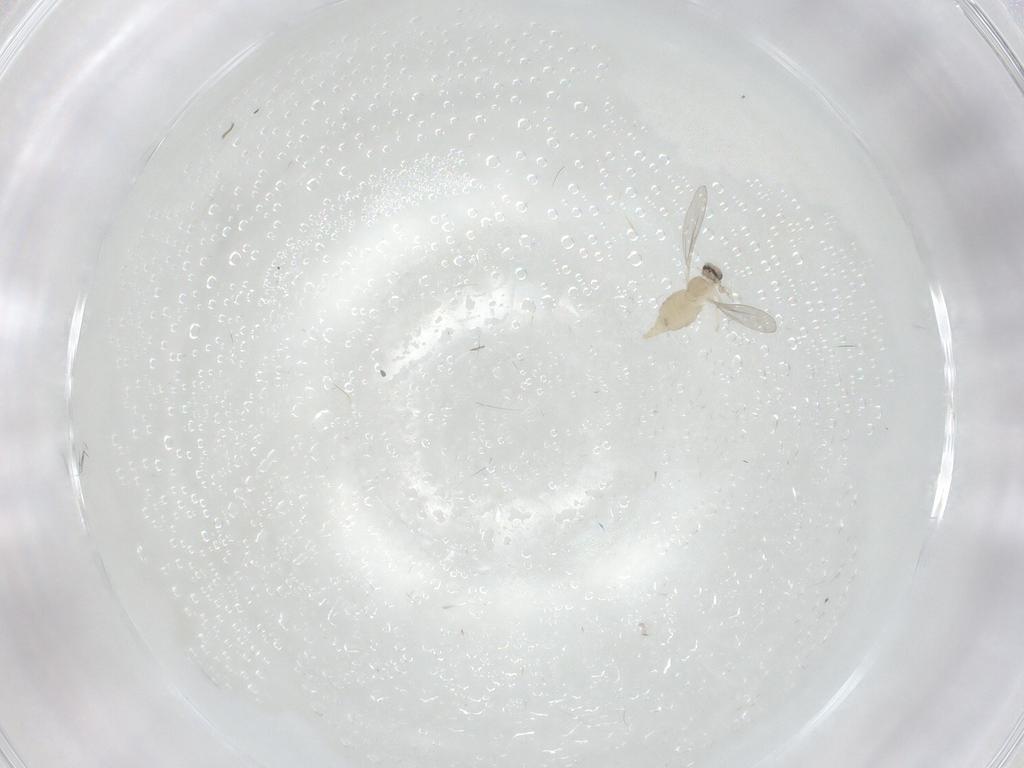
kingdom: Animalia
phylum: Arthropoda
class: Insecta
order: Diptera
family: Cecidomyiidae
